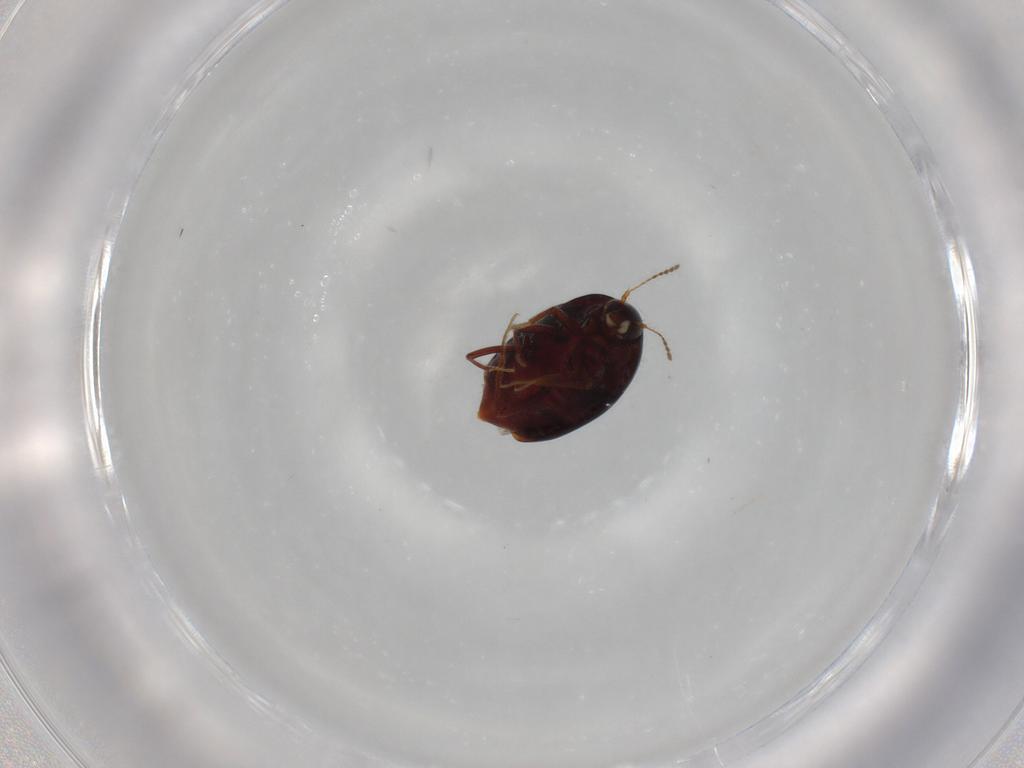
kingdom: Animalia
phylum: Arthropoda
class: Insecta
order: Coleoptera
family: Staphylinidae
